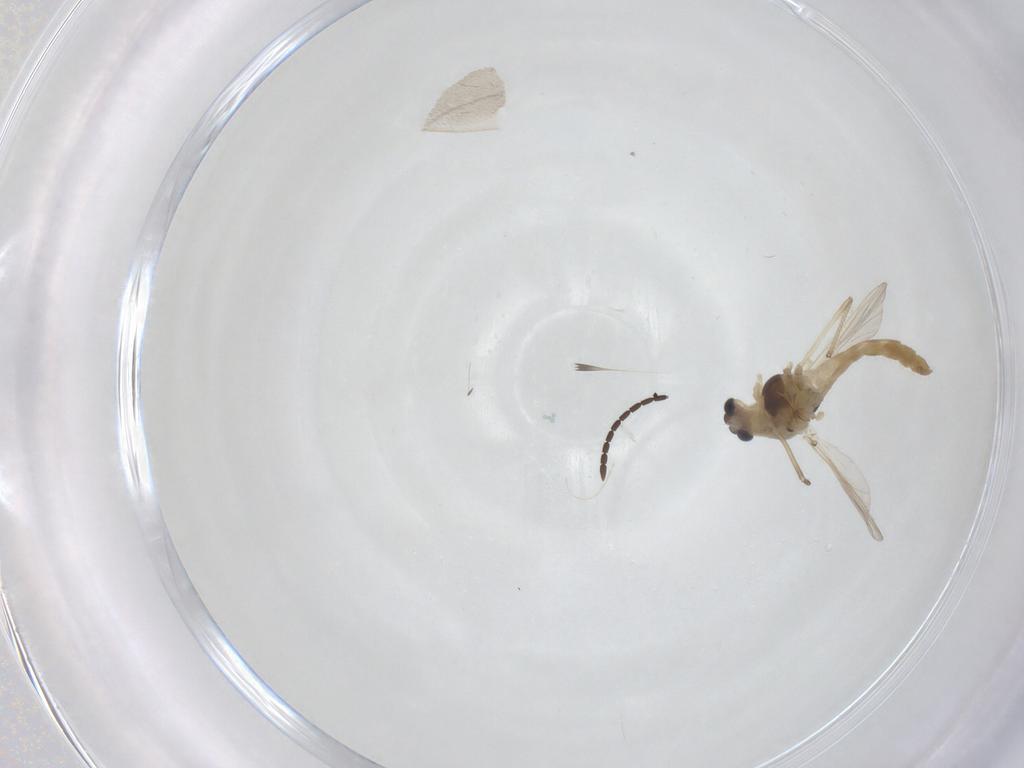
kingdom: Animalia
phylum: Arthropoda
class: Insecta
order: Diptera
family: Chironomidae
